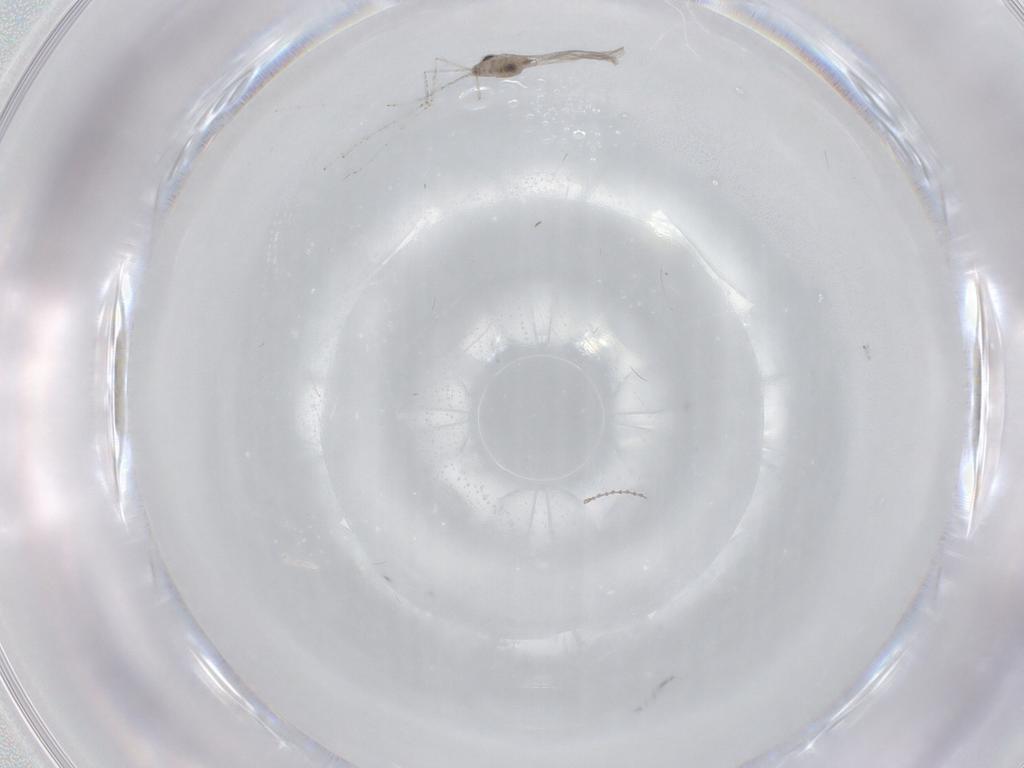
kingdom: Animalia
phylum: Arthropoda
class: Insecta
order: Diptera
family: Cecidomyiidae
